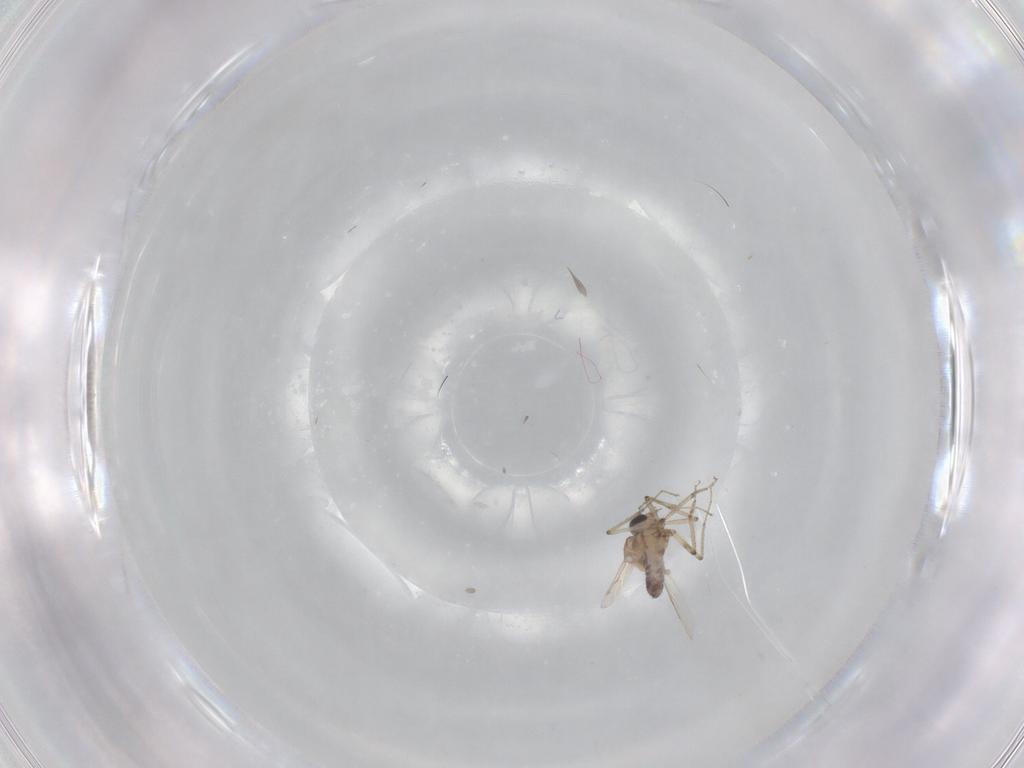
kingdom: Animalia
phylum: Arthropoda
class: Insecta
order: Diptera
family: Ceratopogonidae
